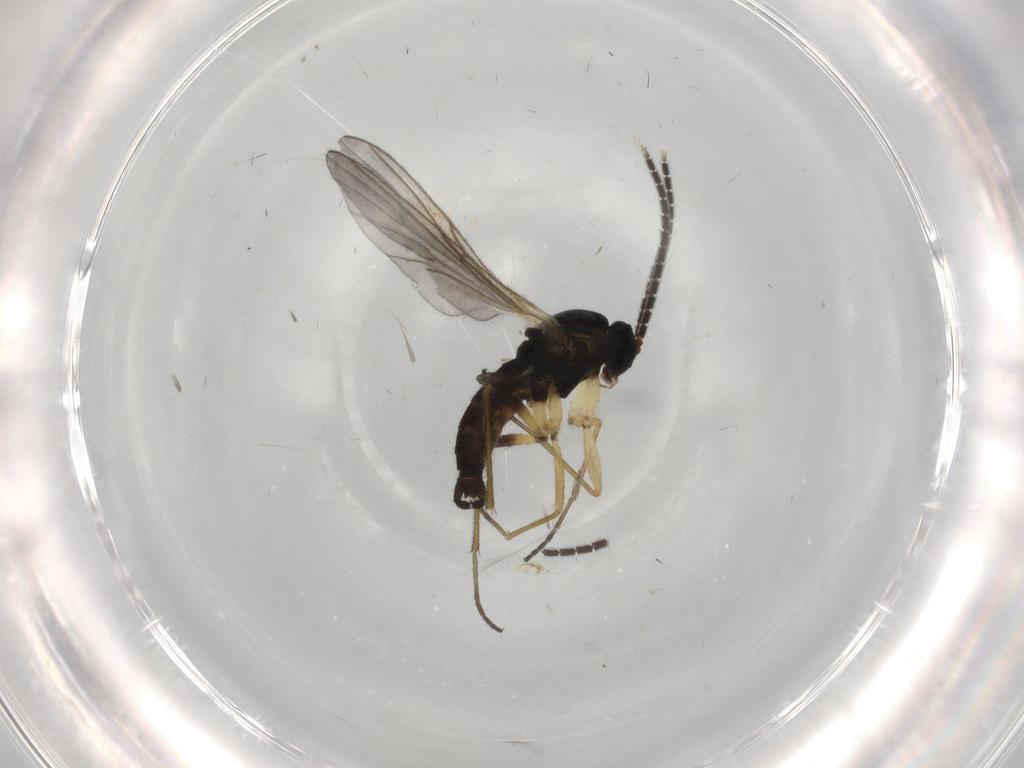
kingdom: Animalia
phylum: Arthropoda
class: Insecta
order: Diptera
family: Sciaridae
